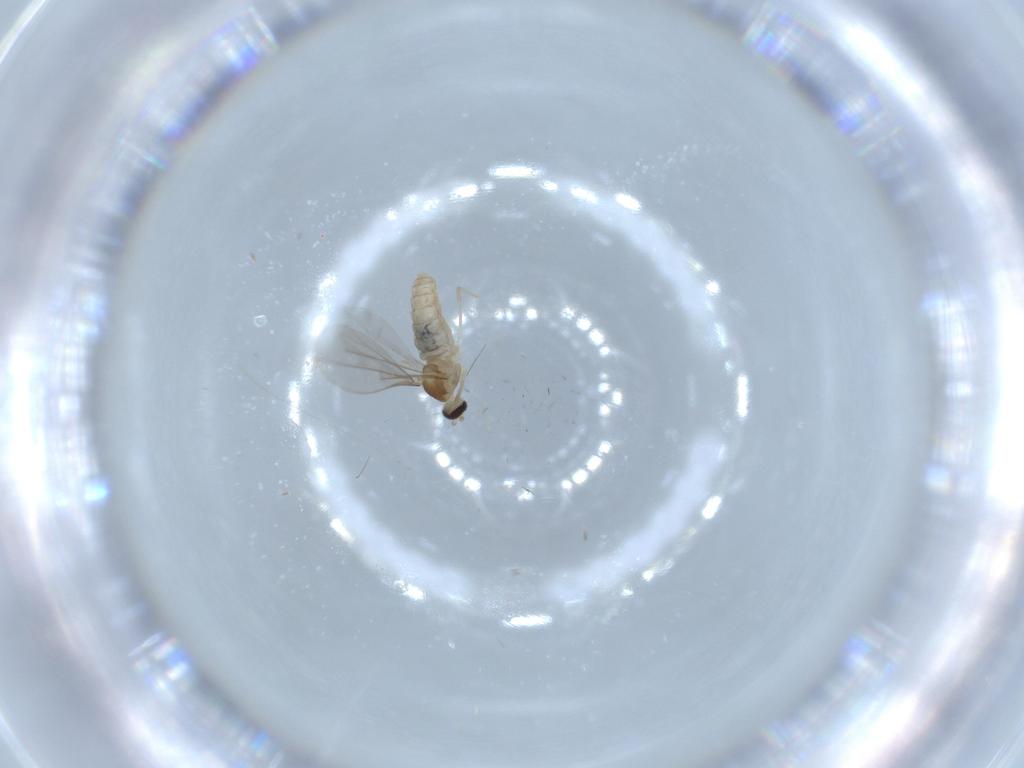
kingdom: Animalia
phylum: Arthropoda
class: Insecta
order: Diptera
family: Cecidomyiidae
